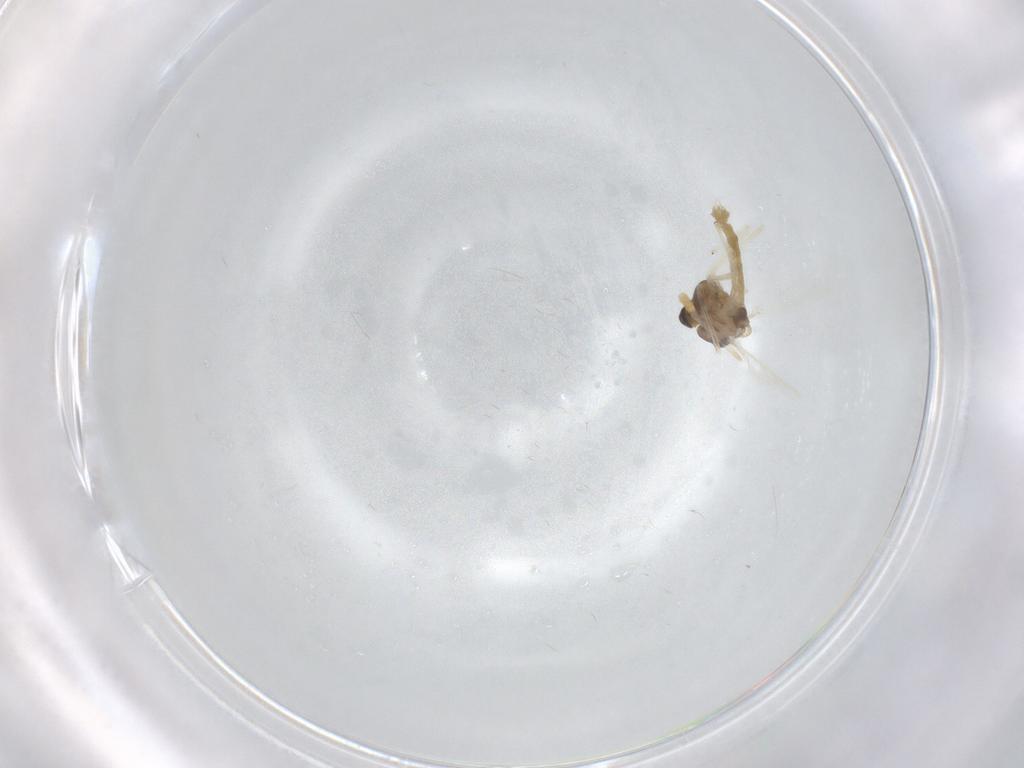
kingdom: Animalia
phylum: Arthropoda
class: Insecta
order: Diptera
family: Chironomidae
